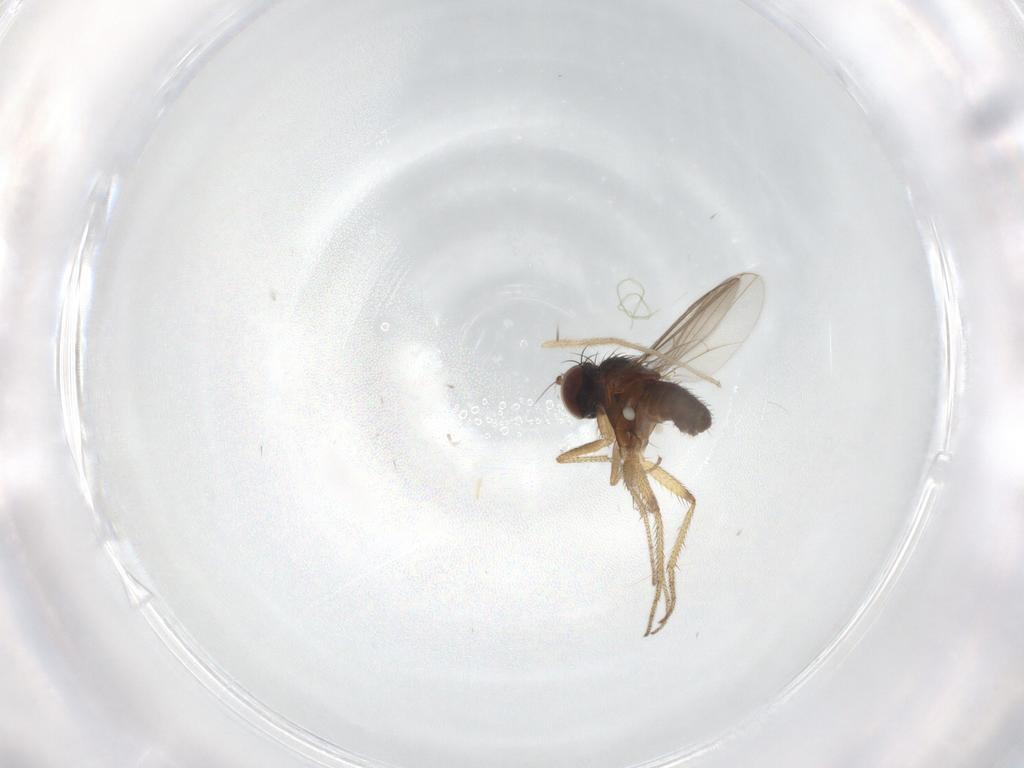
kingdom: Animalia
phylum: Arthropoda
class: Insecta
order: Diptera
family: Chironomidae
